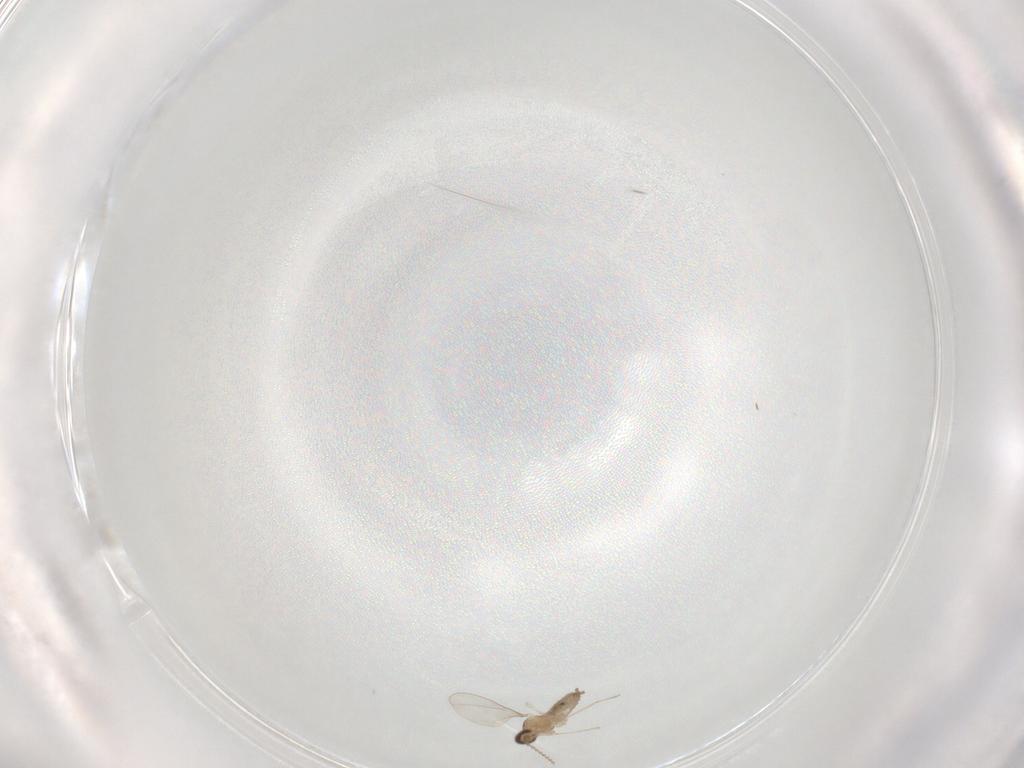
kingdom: Animalia
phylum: Arthropoda
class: Insecta
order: Diptera
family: Cecidomyiidae
